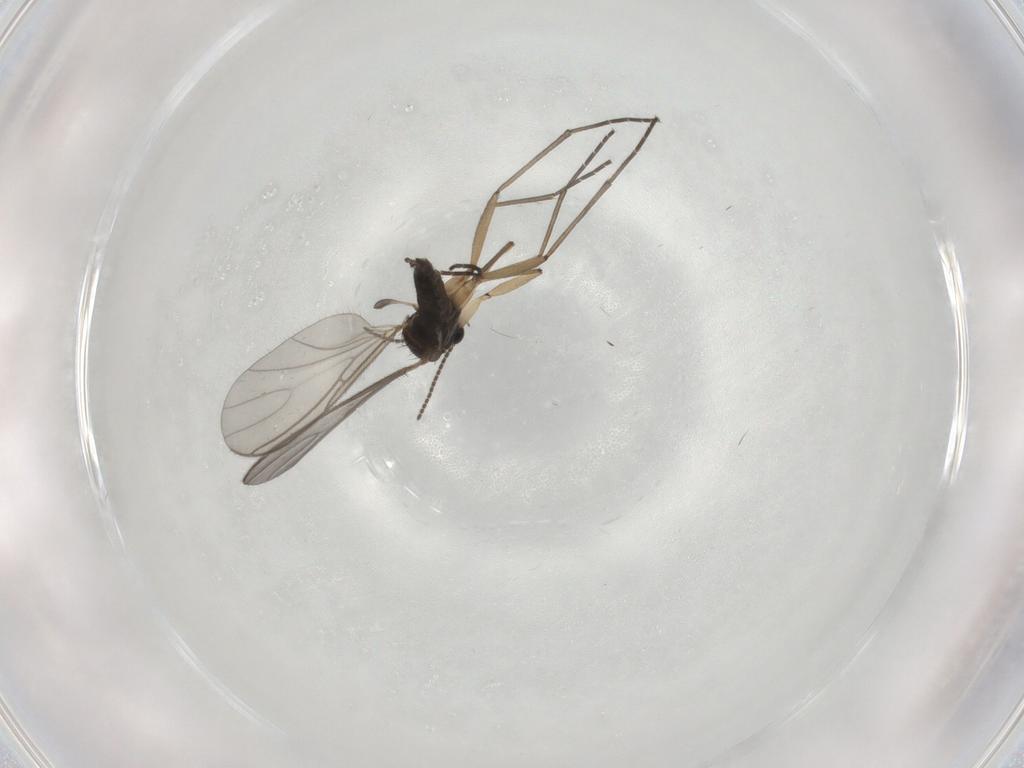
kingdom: Animalia
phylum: Arthropoda
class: Insecta
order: Diptera
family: Sciaridae
